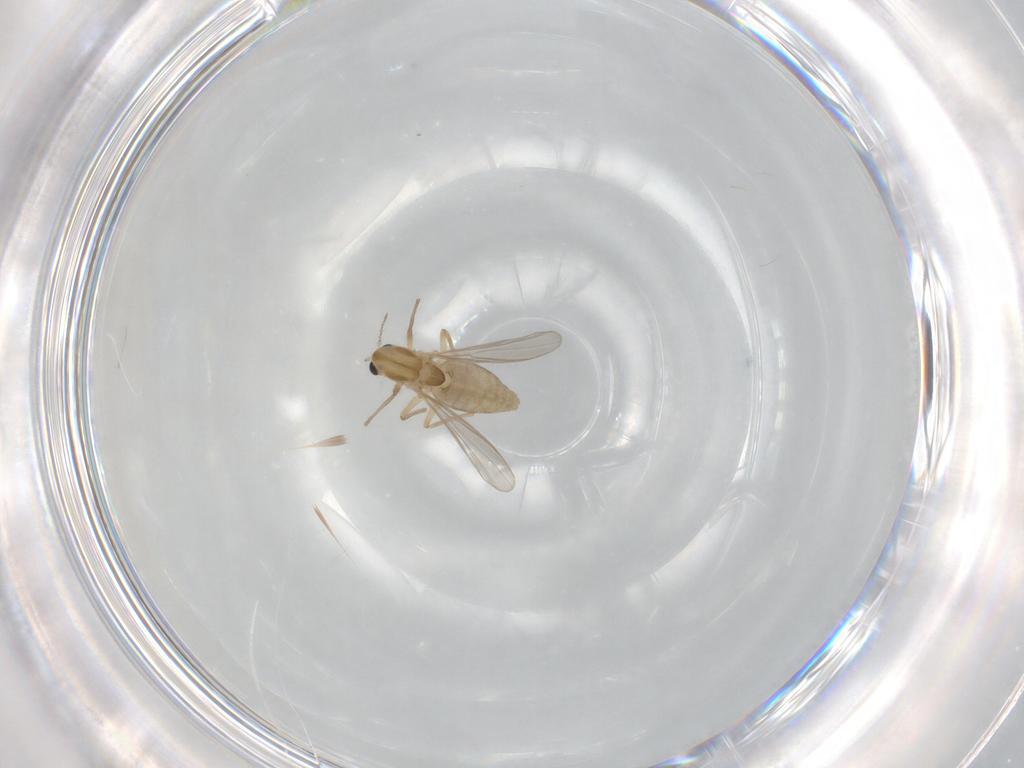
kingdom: Animalia
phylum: Arthropoda
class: Insecta
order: Diptera
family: Chironomidae
